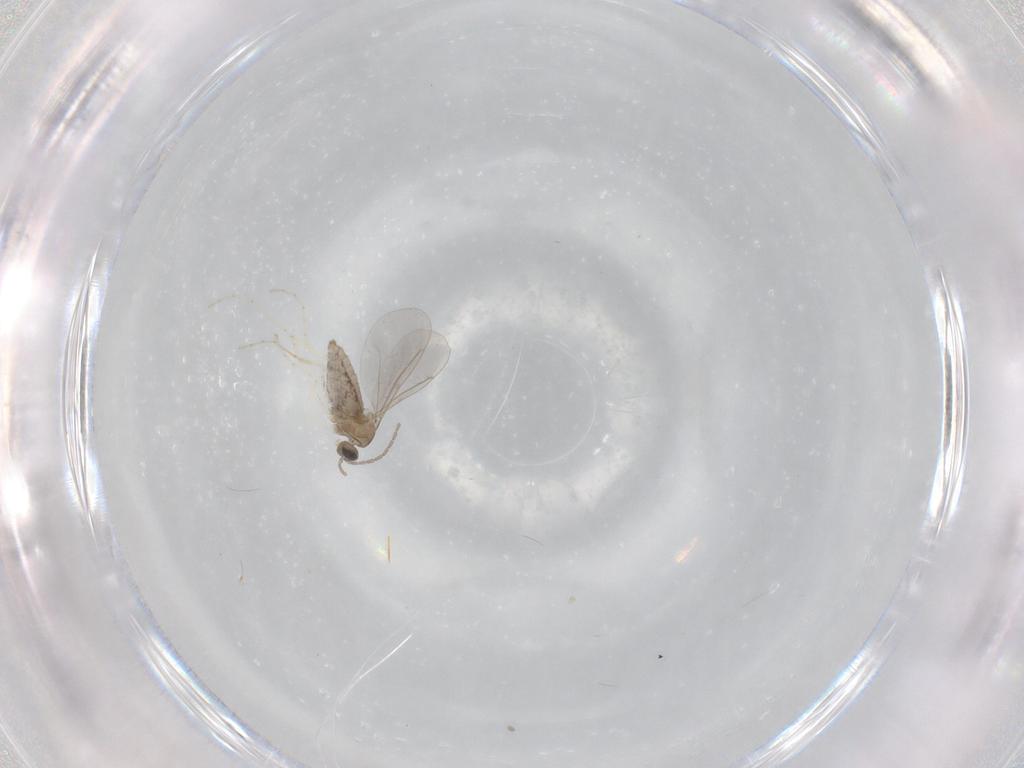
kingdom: Animalia
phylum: Arthropoda
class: Insecta
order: Diptera
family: Cecidomyiidae
